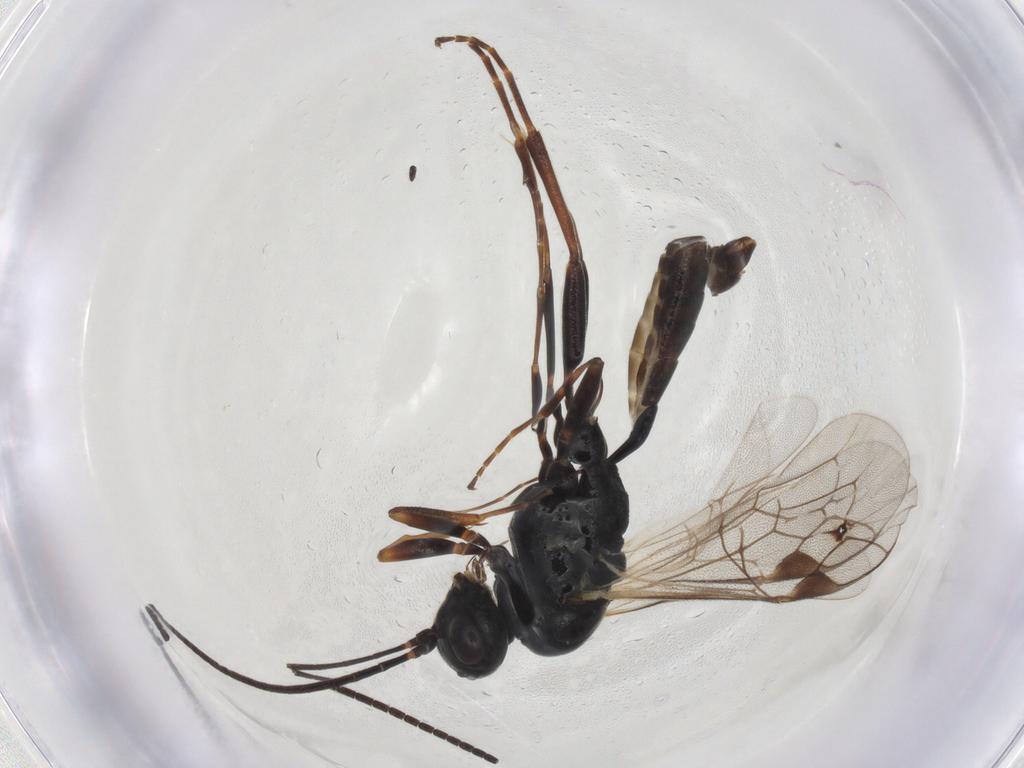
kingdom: Animalia
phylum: Arthropoda
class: Insecta
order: Hymenoptera
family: Ichneumonidae
